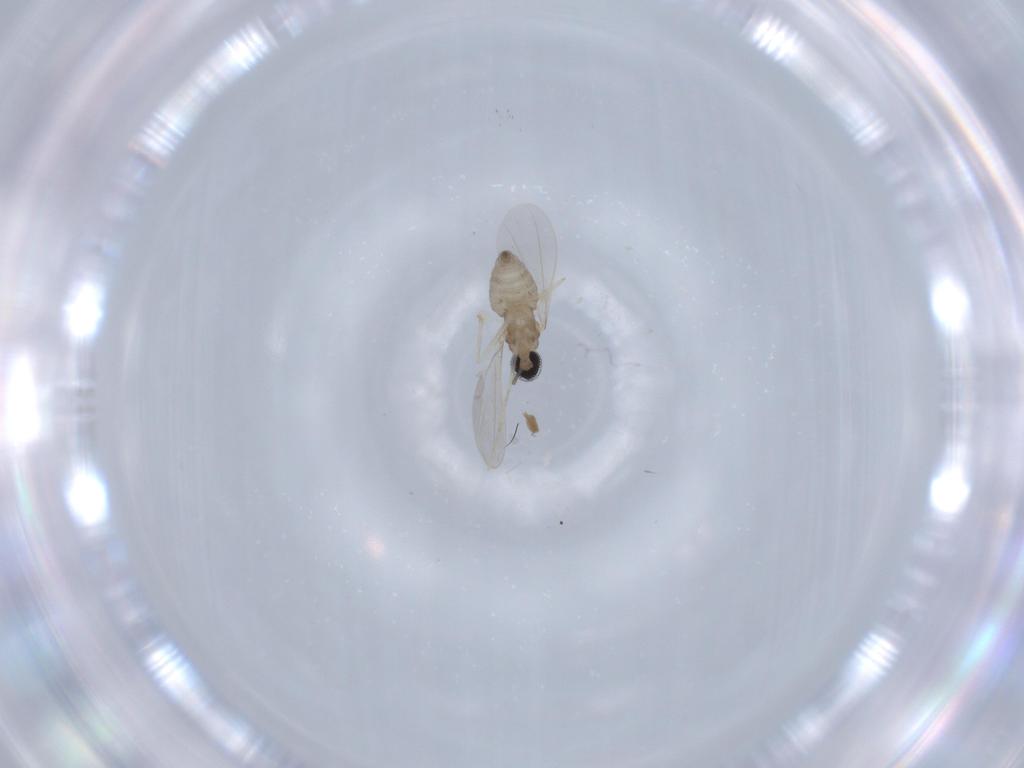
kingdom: Animalia
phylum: Arthropoda
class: Insecta
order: Diptera
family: Cecidomyiidae
